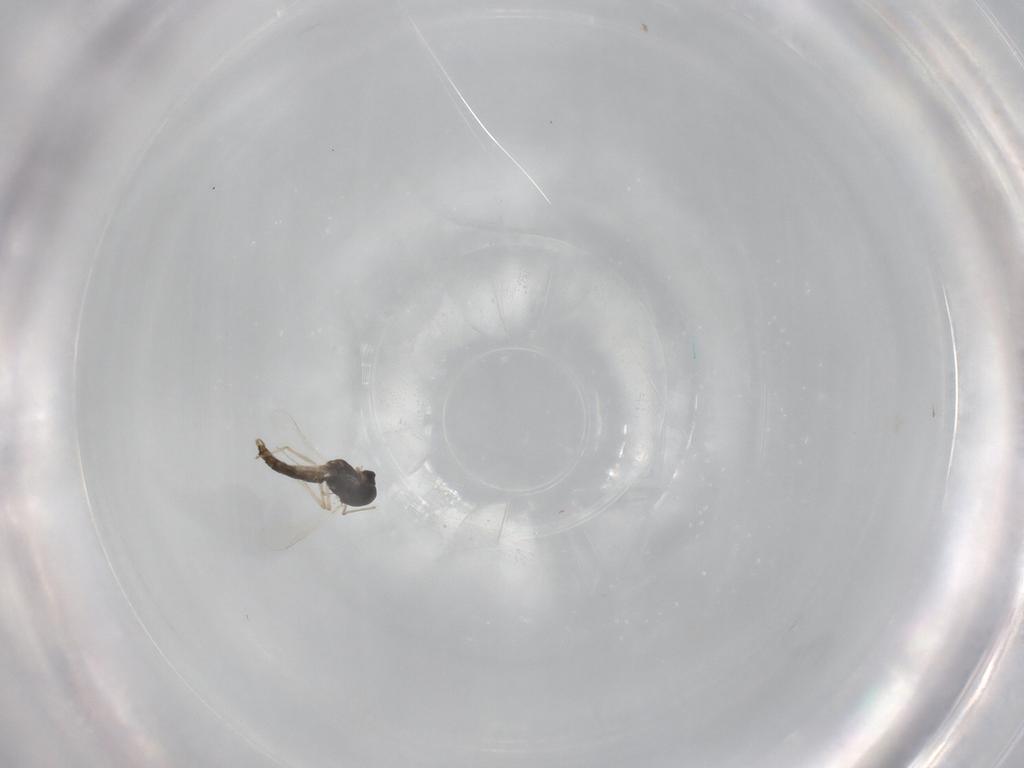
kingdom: Animalia
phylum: Arthropoda
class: Insecta
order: Diptera
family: Chironomidae
